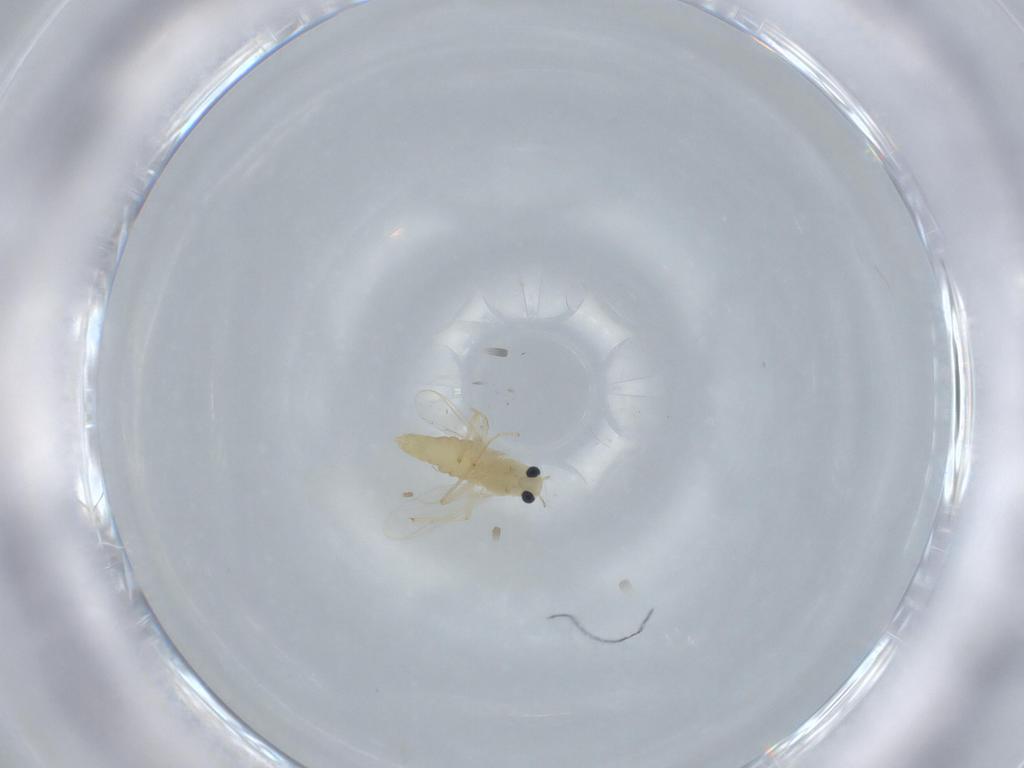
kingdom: Animalia
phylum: Arthropoda
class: Insecta
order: Diptera
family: Chironomidae
